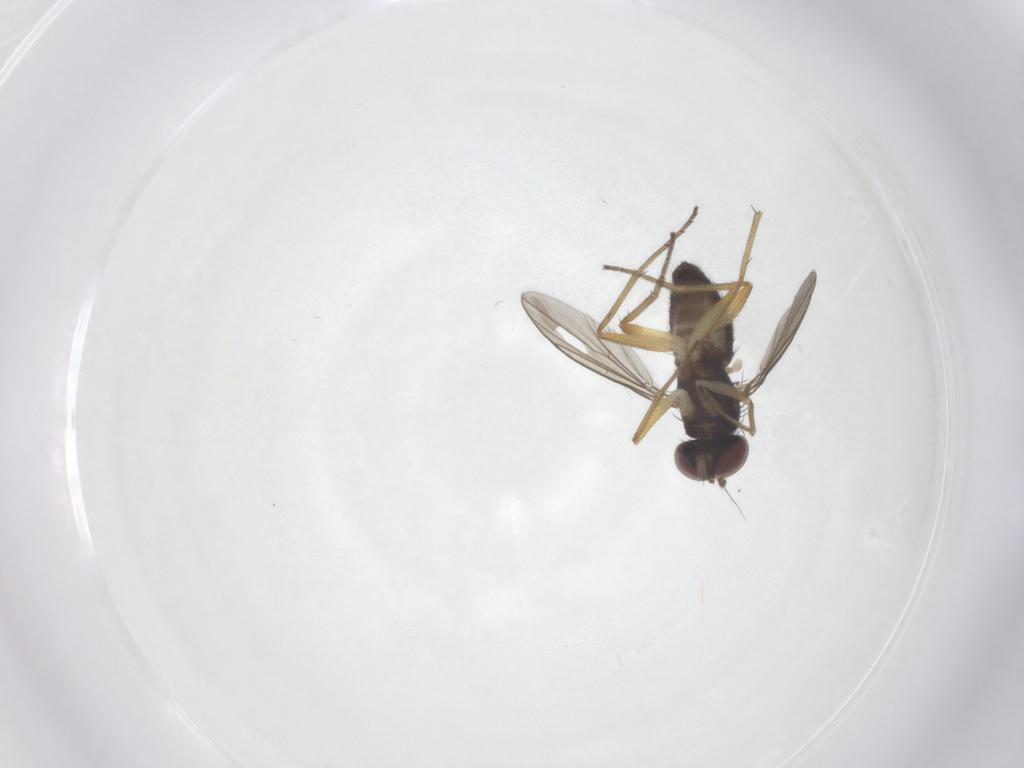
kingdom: Animalia
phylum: Arthropoda
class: Insecta
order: Diptera
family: Dolichopodidae
